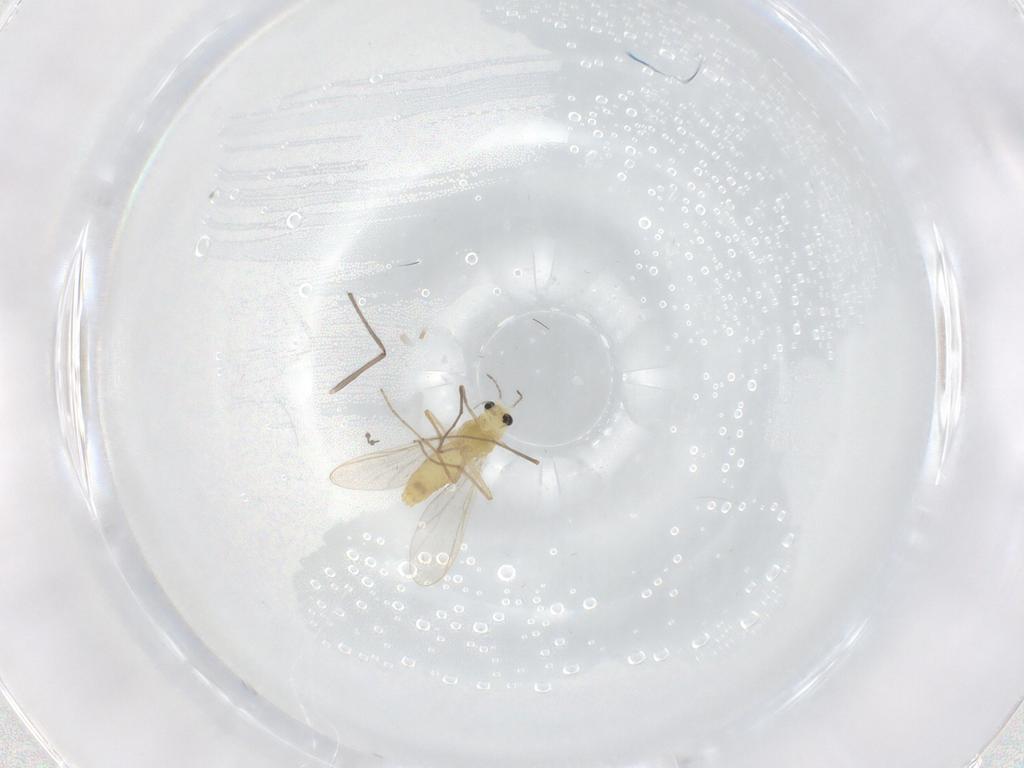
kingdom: Animalia
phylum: Arthropoda
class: Insecta
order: Diptera
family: Chironomidae
